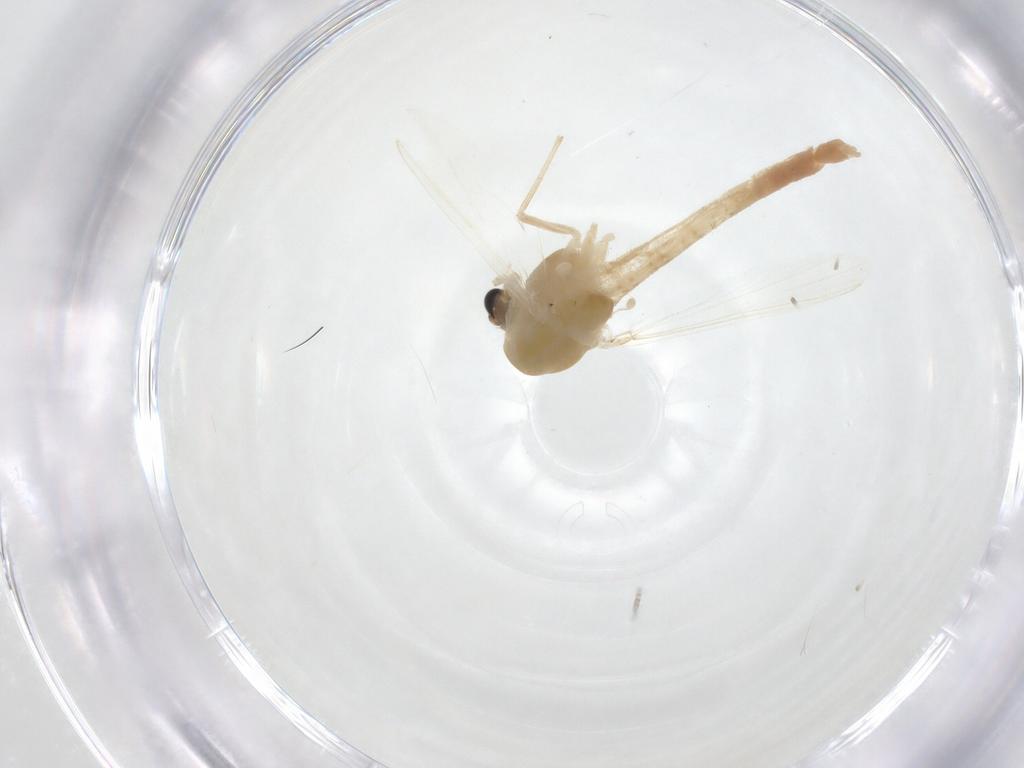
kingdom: Animalia
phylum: Arthropoda
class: Insecta
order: Diptera
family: Chironomidae
